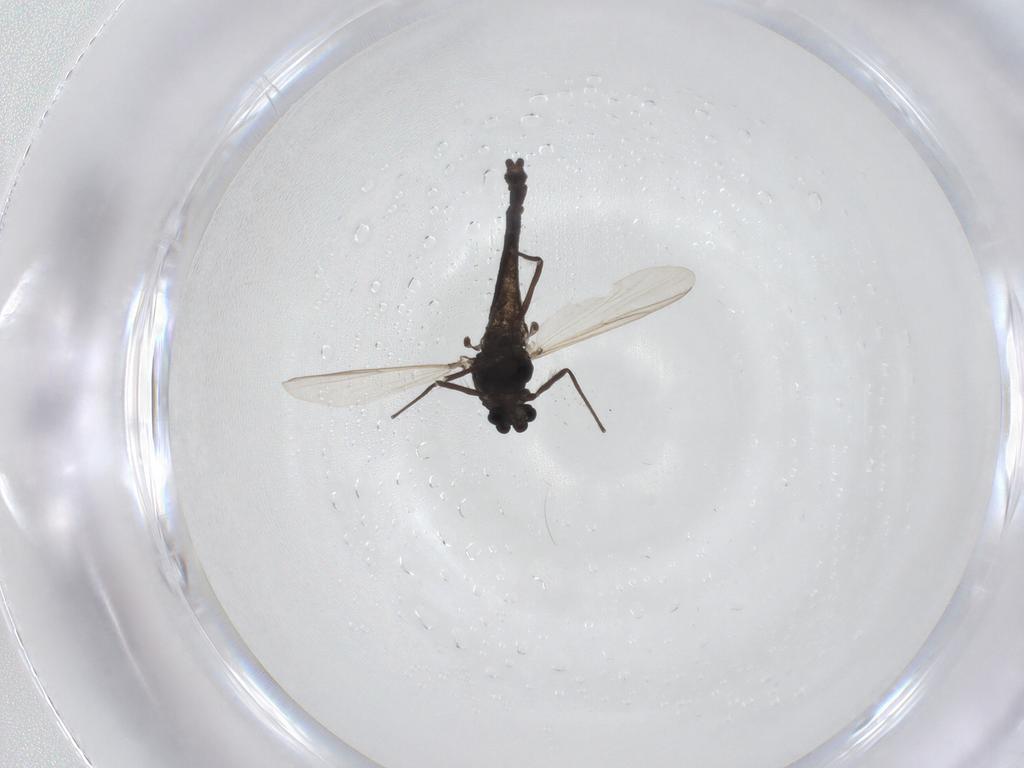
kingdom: Animalia
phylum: Arthropoda
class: Insecta
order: Diptera
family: Chironomidae
